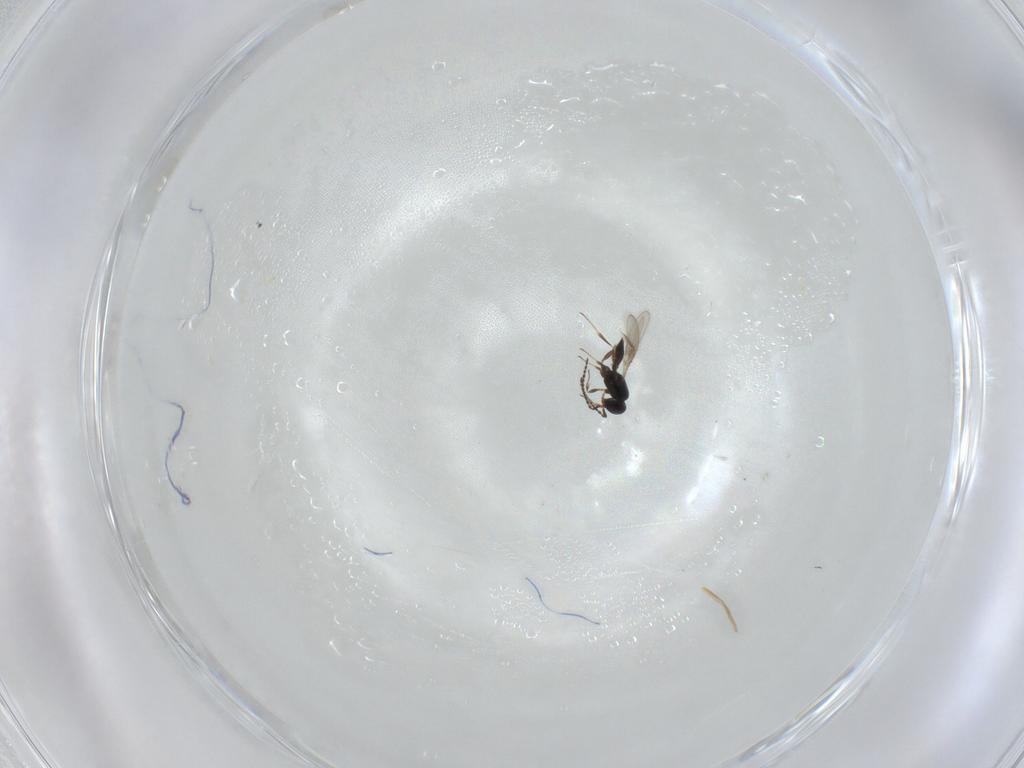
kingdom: Animalia
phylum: Arthropoda
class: Insecta
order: Hymenoptera
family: Scelionidae
